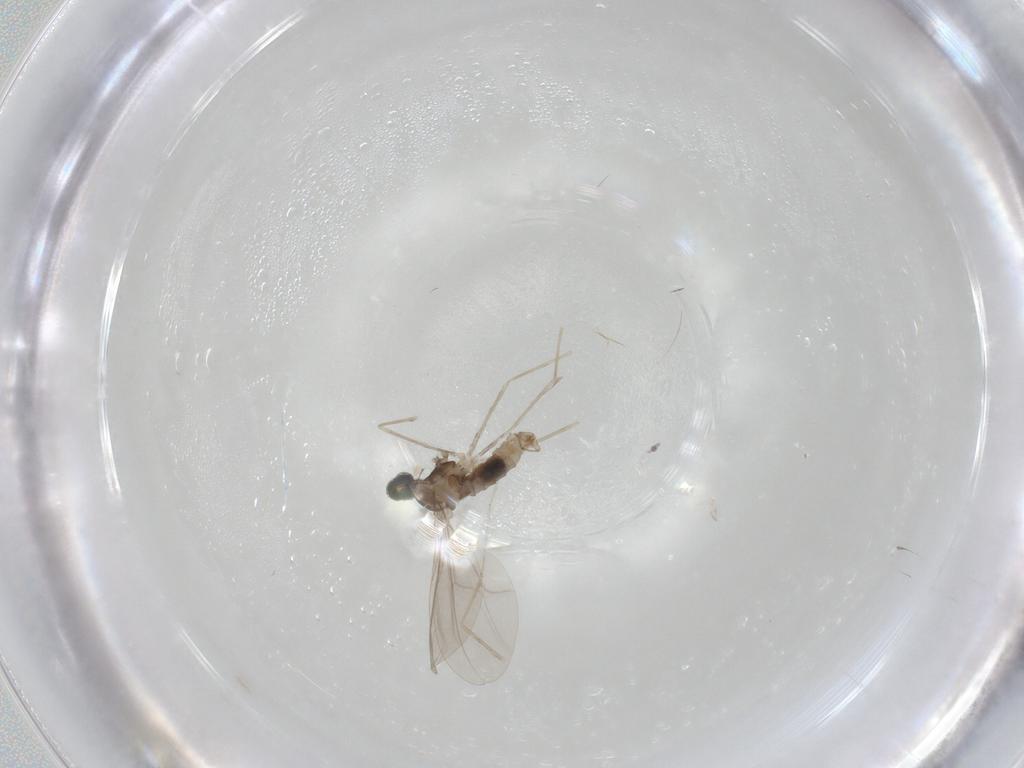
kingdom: Animalia
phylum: Arthropoda
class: Insecta
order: Diptera
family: Cecidomyiidae
